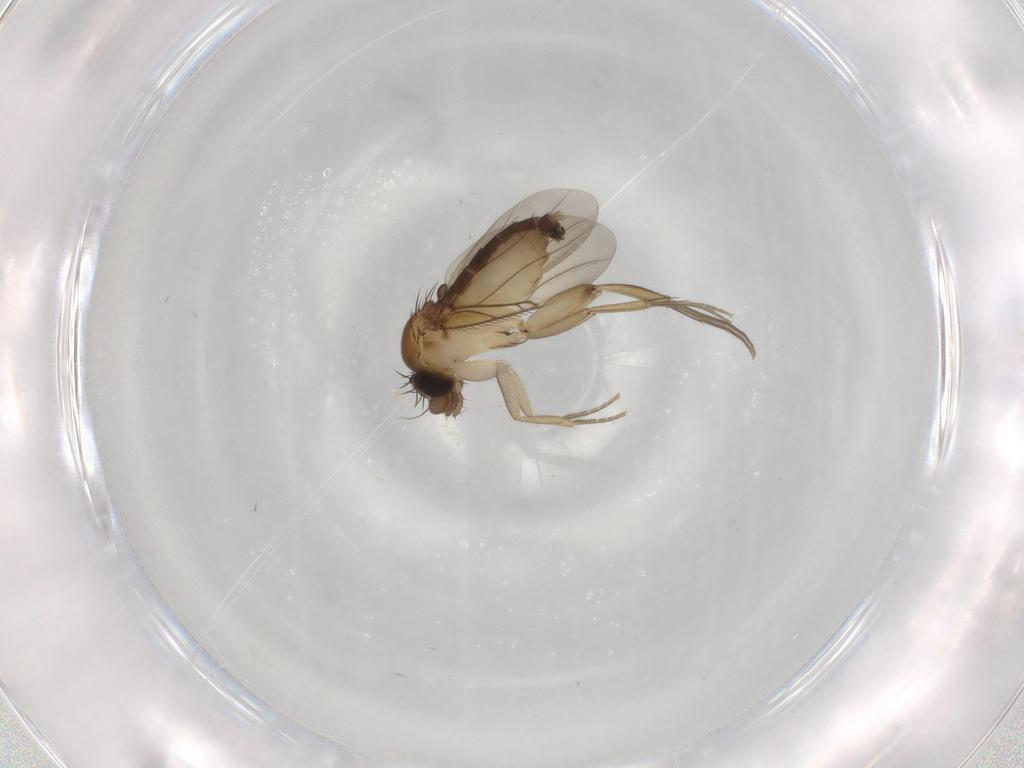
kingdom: Animalia
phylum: Arthropoda
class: Insecta
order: Diptera
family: Phoridae
